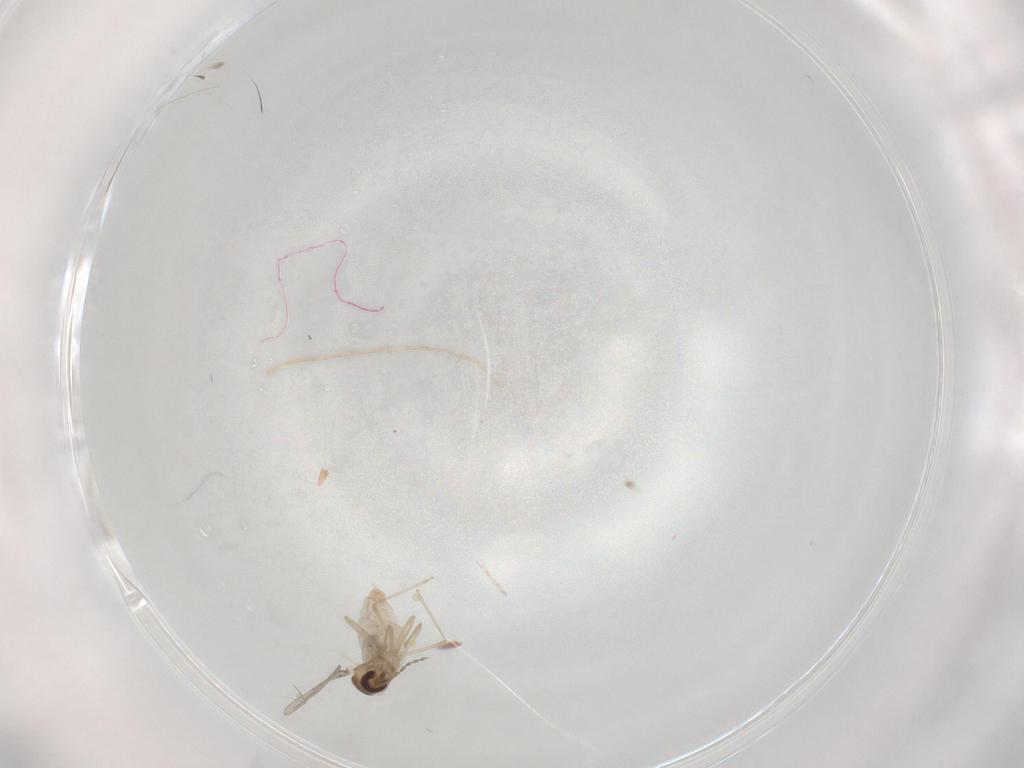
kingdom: Animalia
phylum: Arthropoda
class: Insecta
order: Diptera
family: Cecidomyiidae
